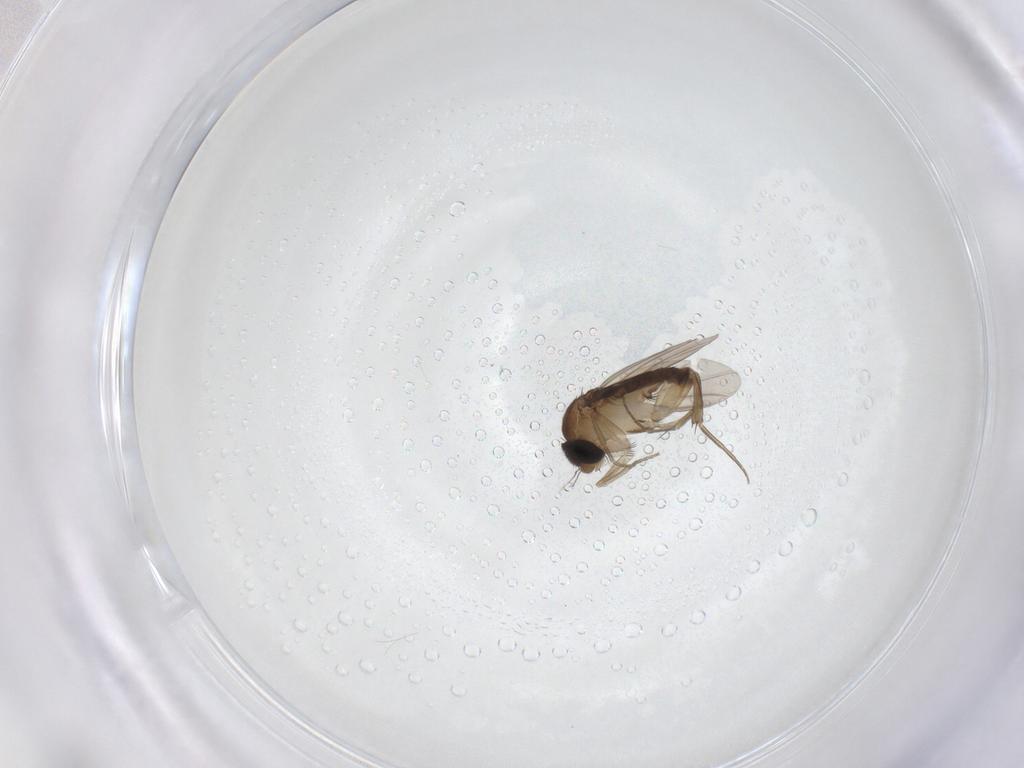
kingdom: Animalia
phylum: Arthropoda
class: Insecta
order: Diptera
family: Phoridae
